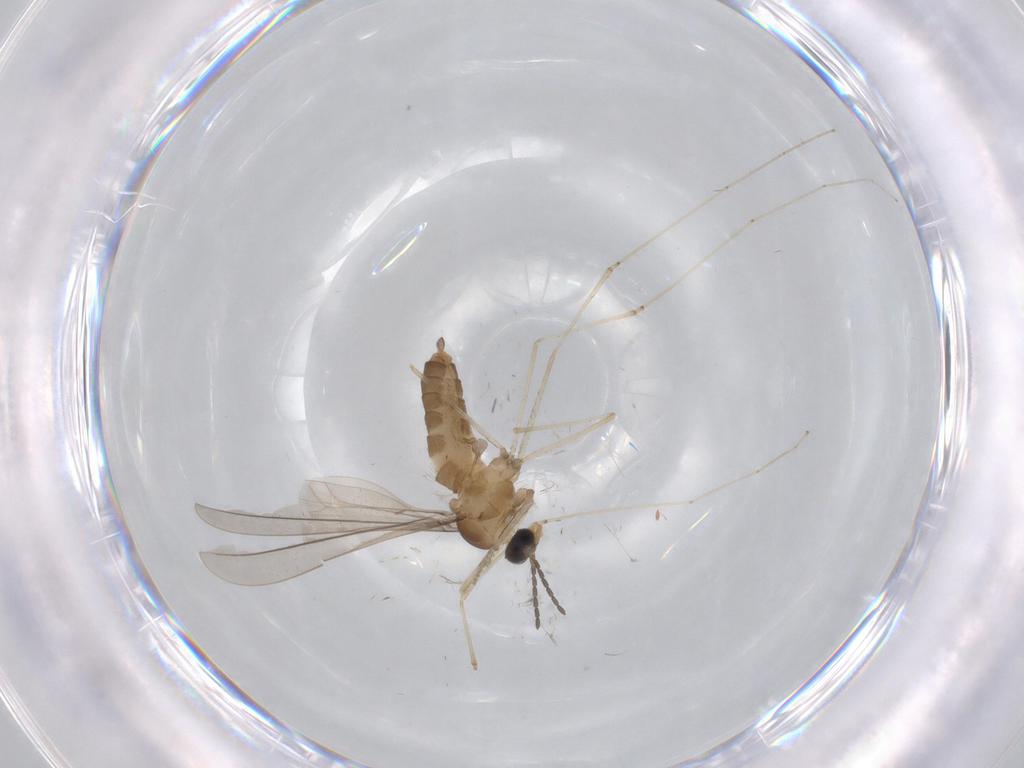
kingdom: Animalia
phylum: Arthropoda
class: Insecta
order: Diptera
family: Cecidomyiidae
